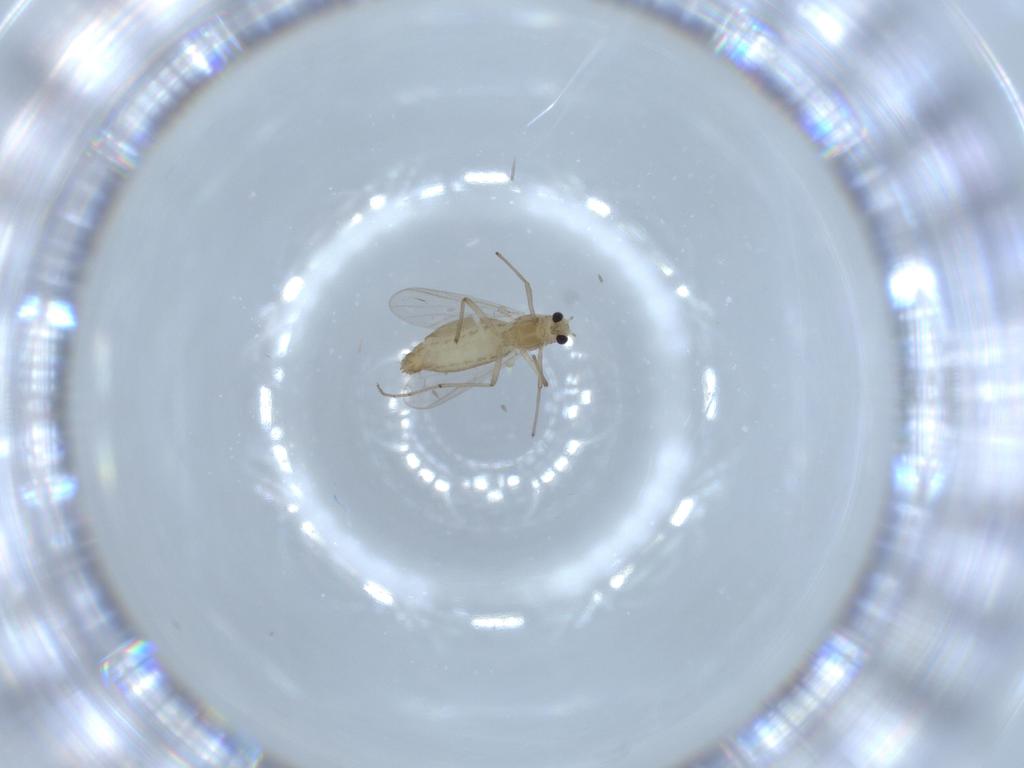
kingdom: Animalia
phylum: Arthropoda
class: Insecta
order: Diptera
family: Chironomidae
